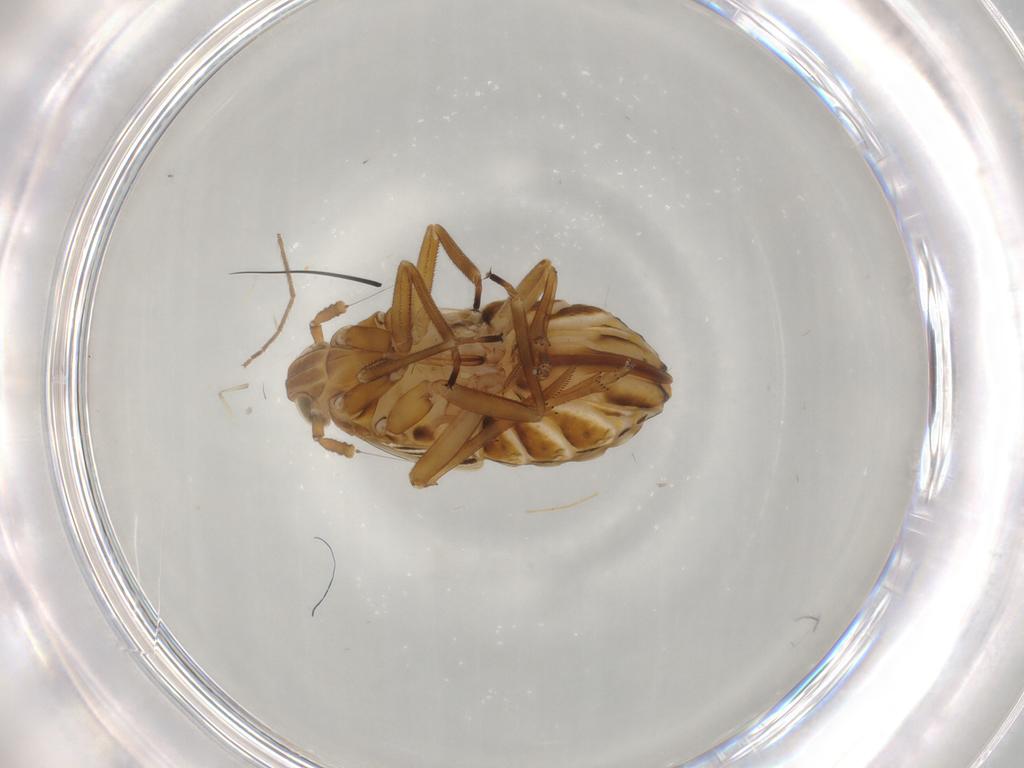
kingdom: Animalia
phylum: Arthropoda
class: Insecta
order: Hemiptera
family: Delphacidae
